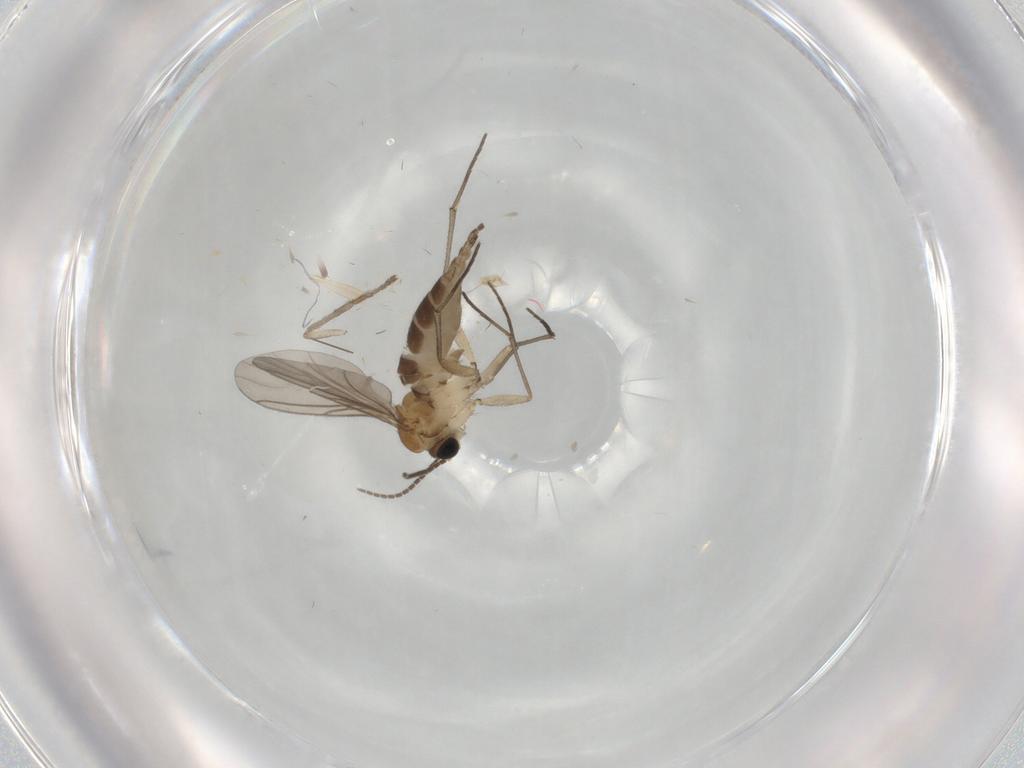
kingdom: Animalia
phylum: Arthropoda
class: Insecta
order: Diptera
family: Sciaridae
